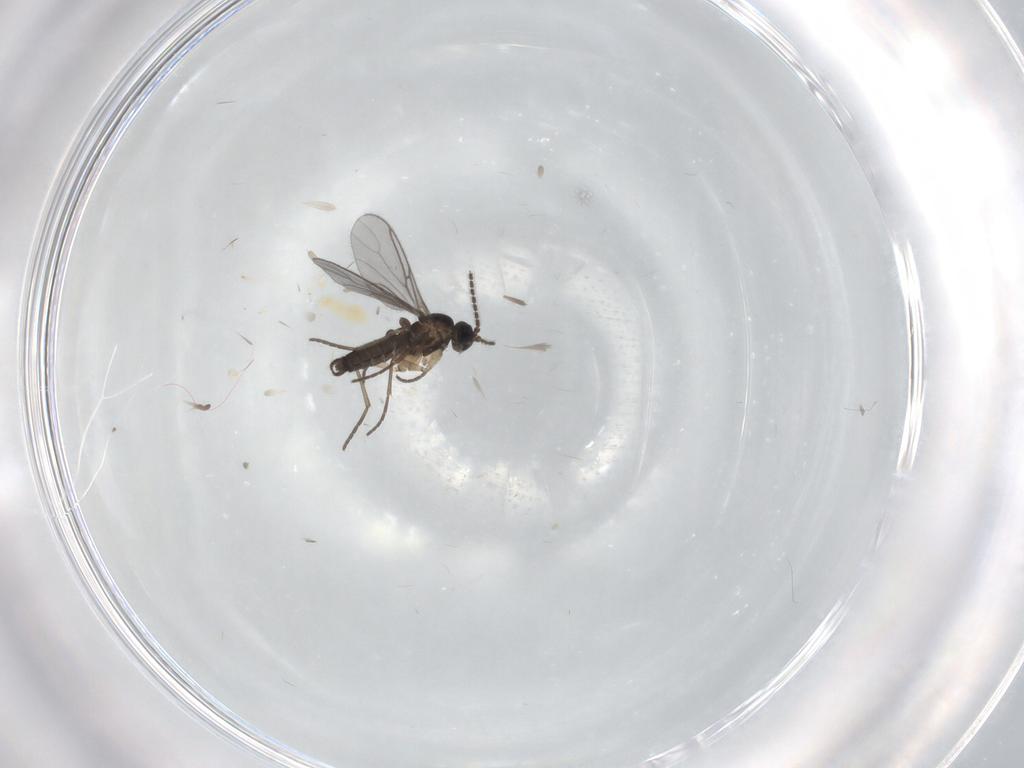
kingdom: Animalia
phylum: Arthropoda
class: Insecta
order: Diptera
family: Sciaridae
